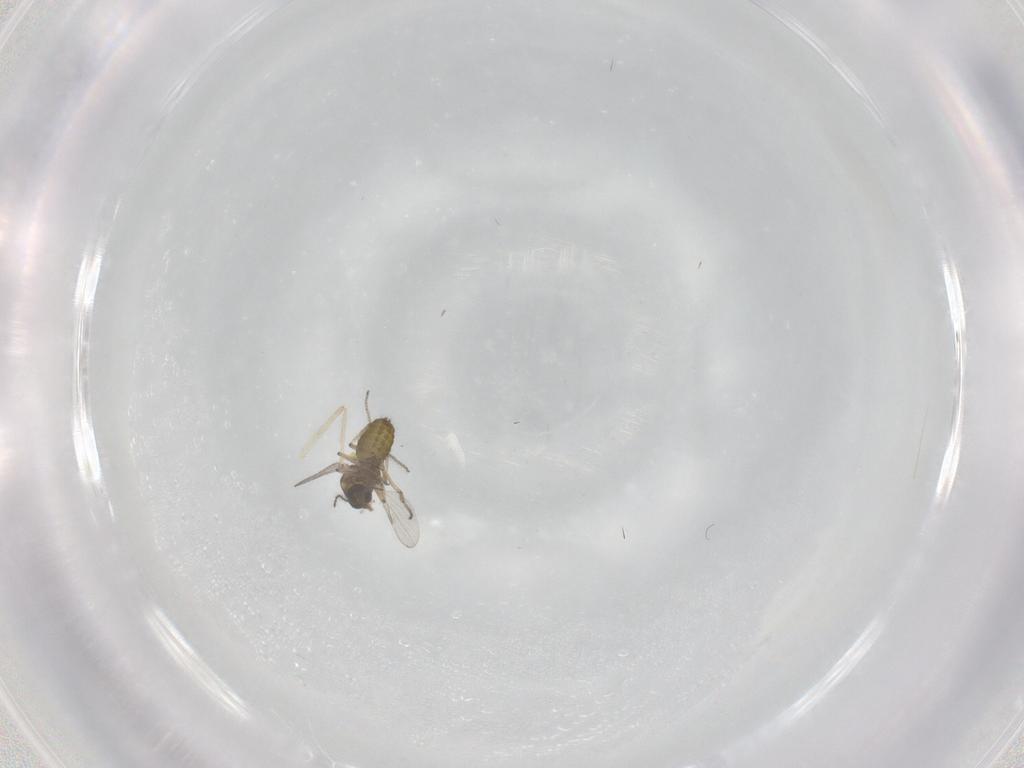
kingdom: Animalia
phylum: Arthropoda
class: Insecta
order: Diptera
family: Ceratopogonidae
